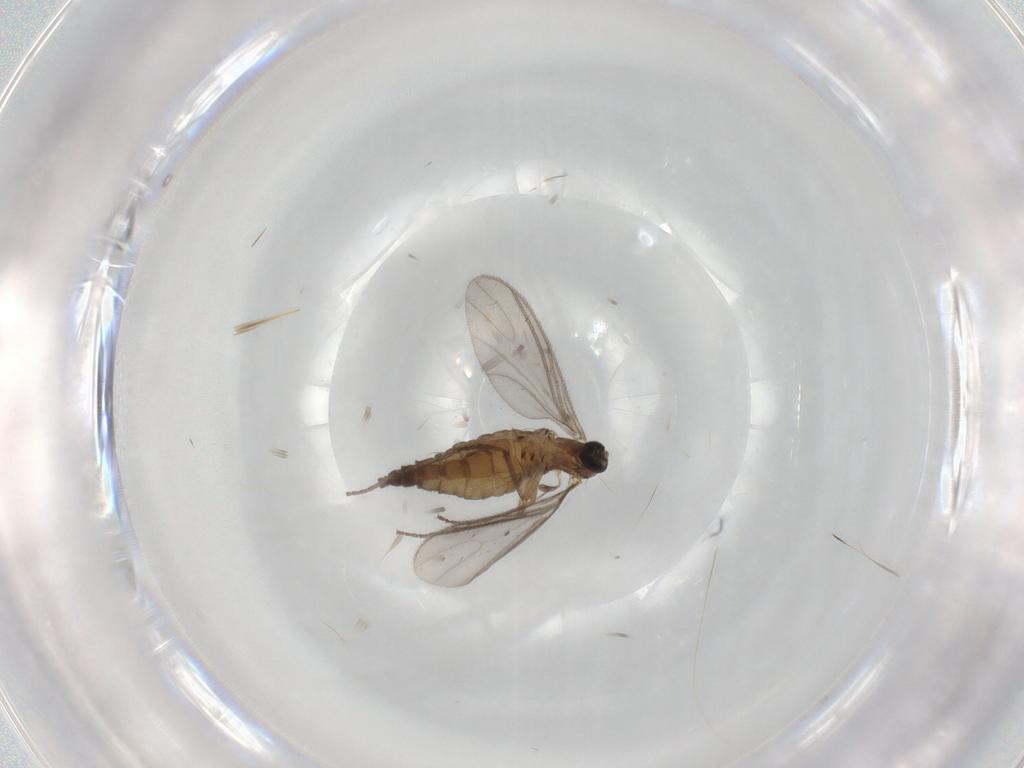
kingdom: Animalia
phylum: Arthropoda
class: Insecta
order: Diptera
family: Sciaridae
